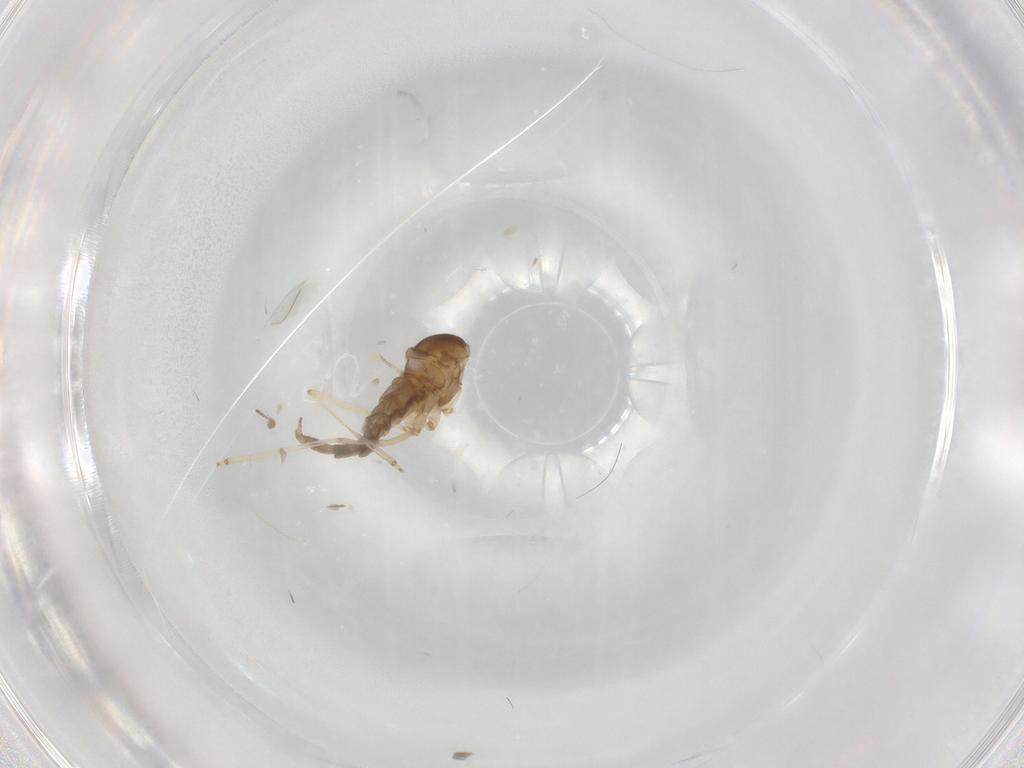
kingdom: Animalia
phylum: Arthropoda
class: Insecta
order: Diptera
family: Cecidomyiidae
